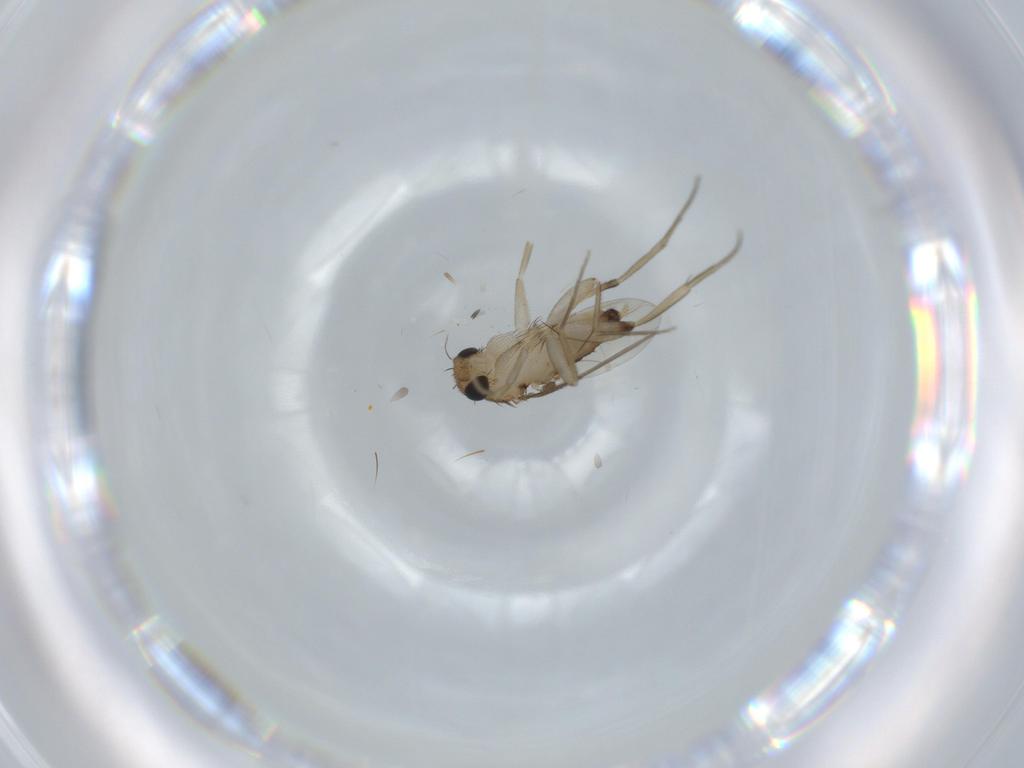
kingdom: Animalia
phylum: Arthropoda
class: Insecta
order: Diptera
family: Phoridae
